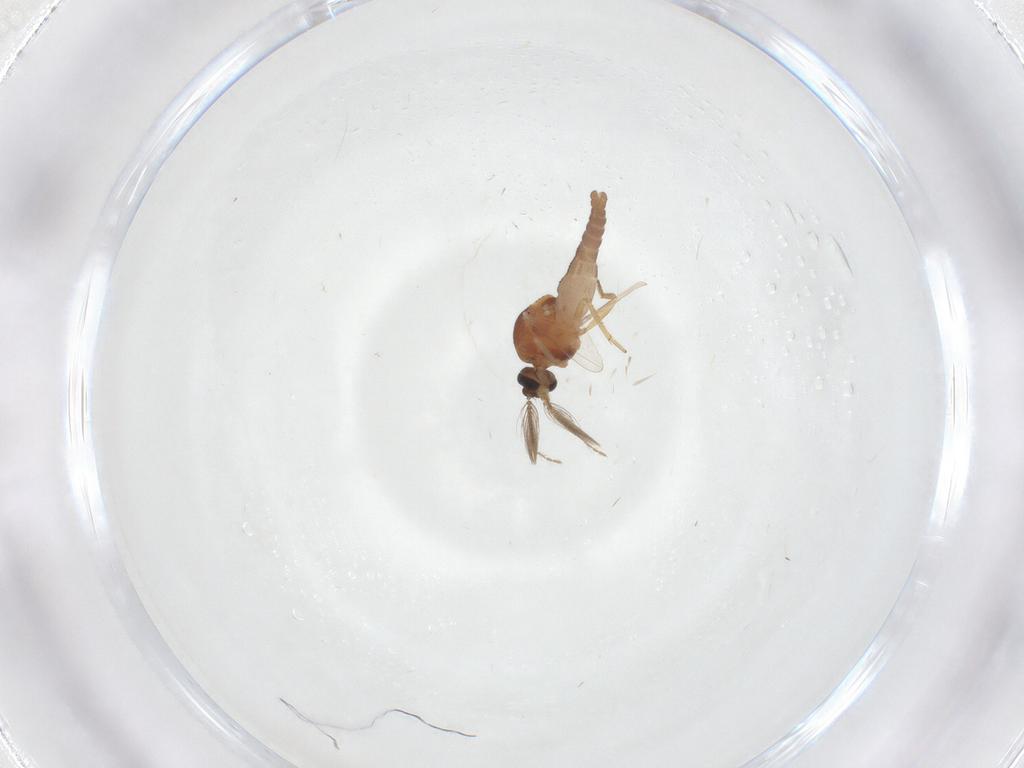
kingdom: Animalia
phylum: Arthropoda
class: Insecta
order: Diptera
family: Ceratopogonidae
